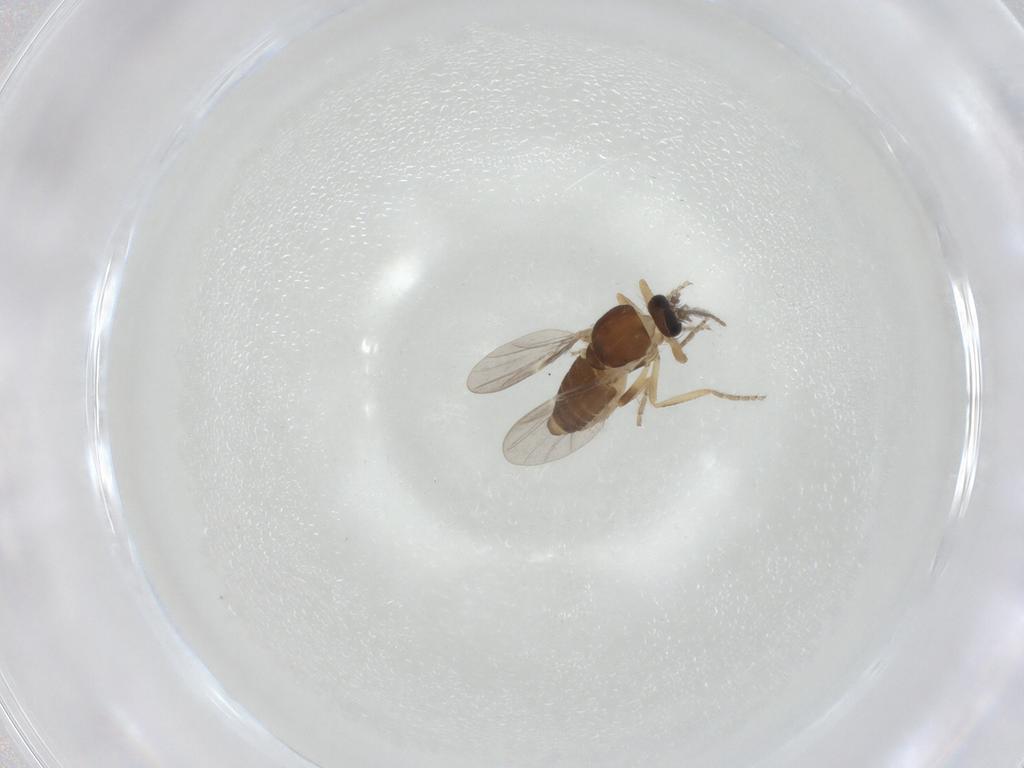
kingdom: Animalia
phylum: Arthropoda
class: Insecta
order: Diptera
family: Ceratopogonidae
